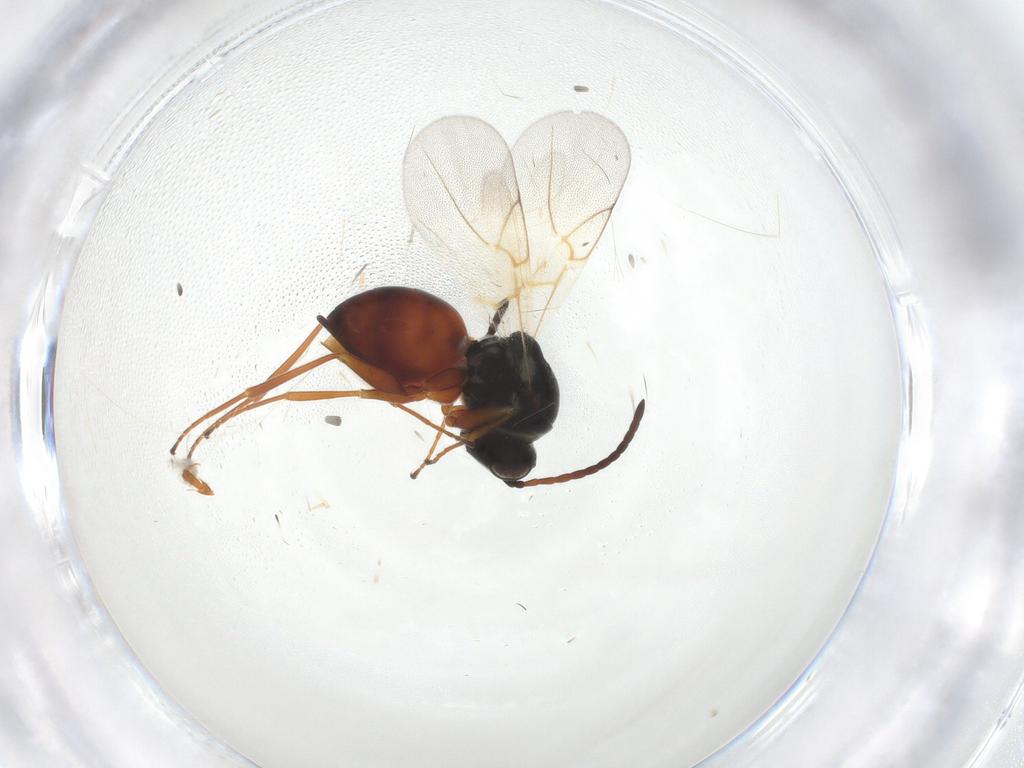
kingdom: Animalia
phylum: Arthropoda
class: Insecta
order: Hymenoptera
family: Cynipidae
